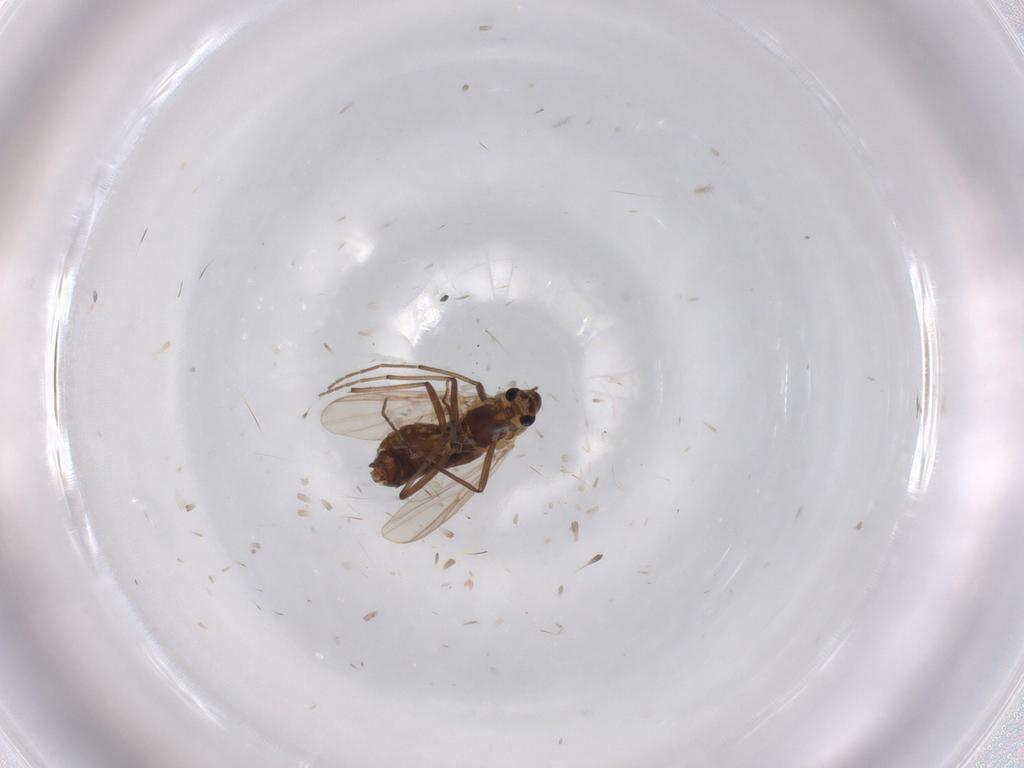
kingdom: Animalia
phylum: Arthropoda
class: Insecta
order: Diptera
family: Chironomidae
